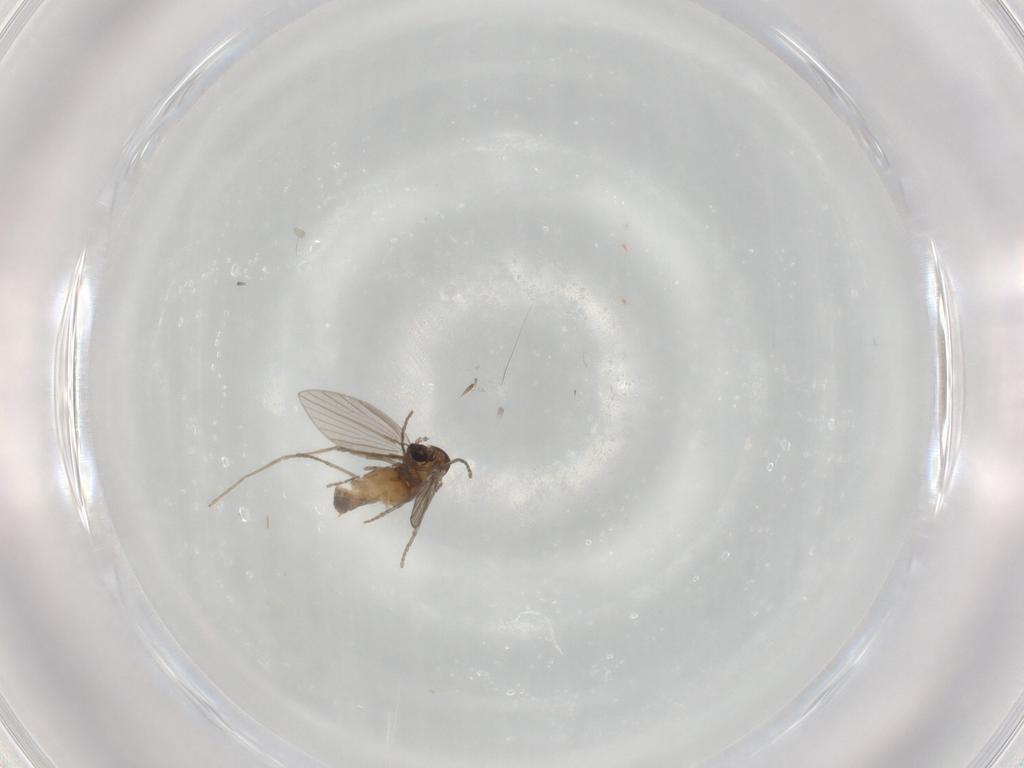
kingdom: Animalia
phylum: Arthropoda
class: Insecta
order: Diptera
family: Psychodidae
